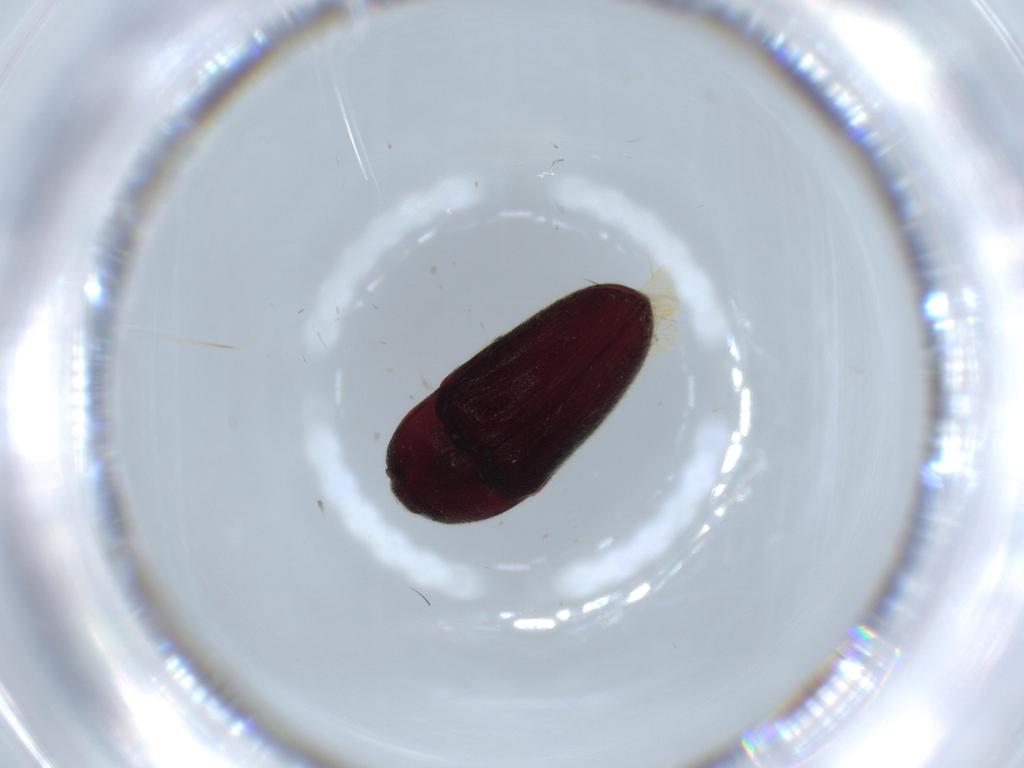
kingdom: Animalia
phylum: Arthropoda
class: Insecta
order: Coleoptera
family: Throscidae
